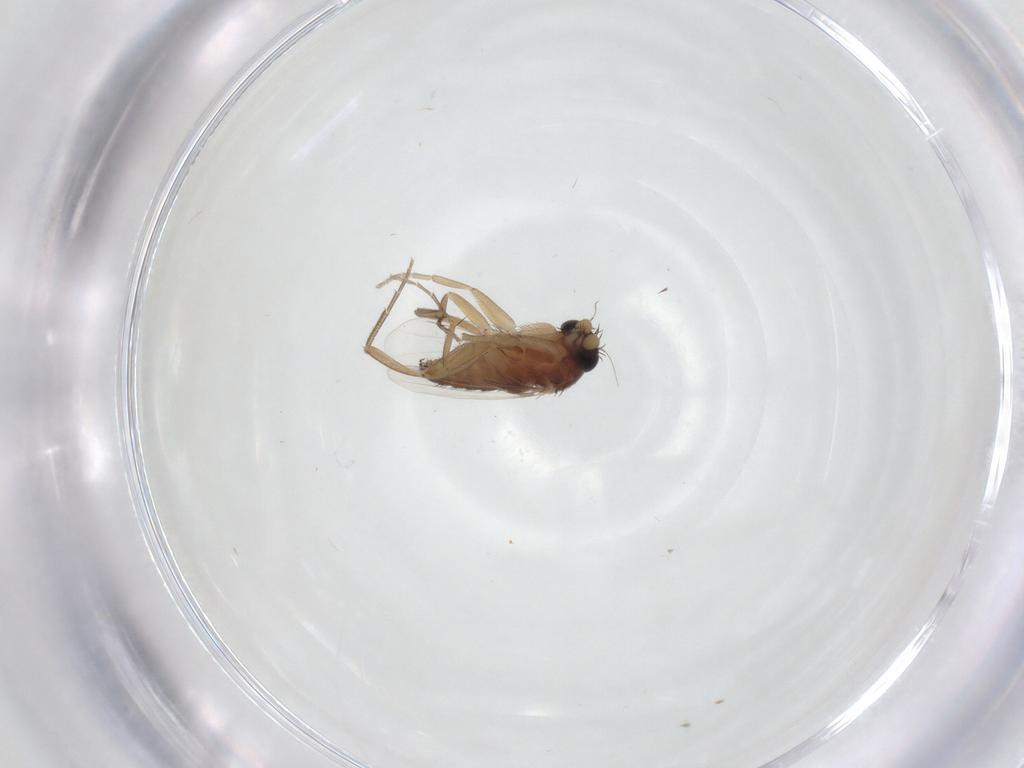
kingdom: Animalia
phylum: Arthropoda
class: Insecta
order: Diptera
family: Phoridae
